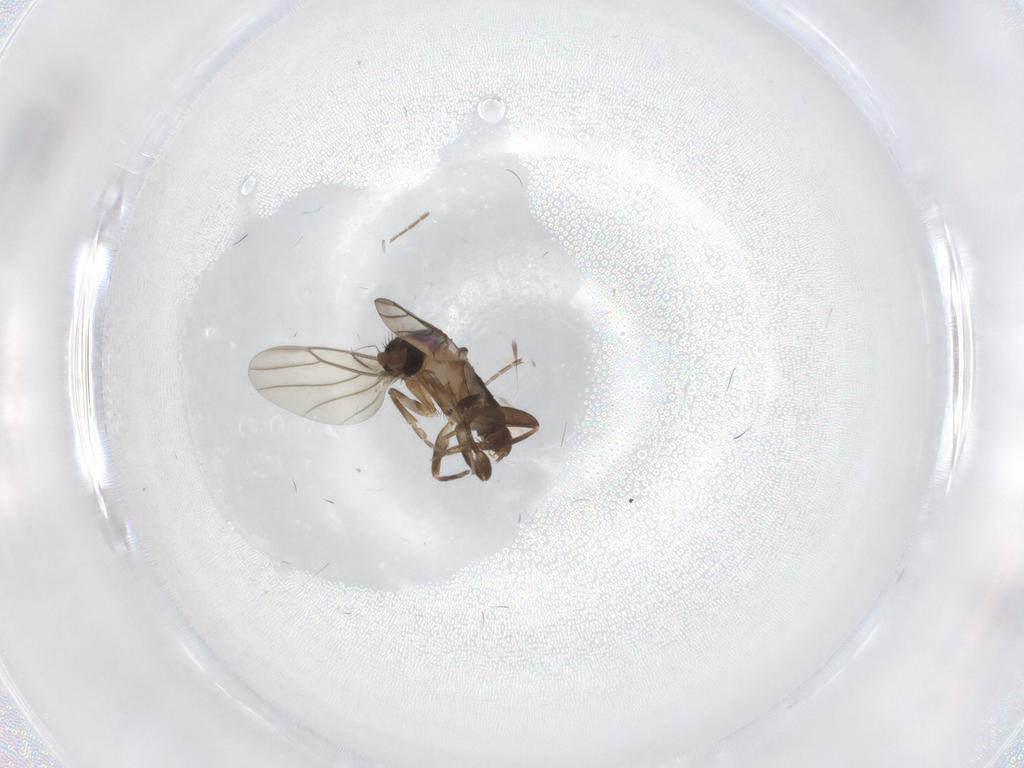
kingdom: Animalia
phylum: Arthropoda
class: Insecta
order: Diptera
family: Phoridae
